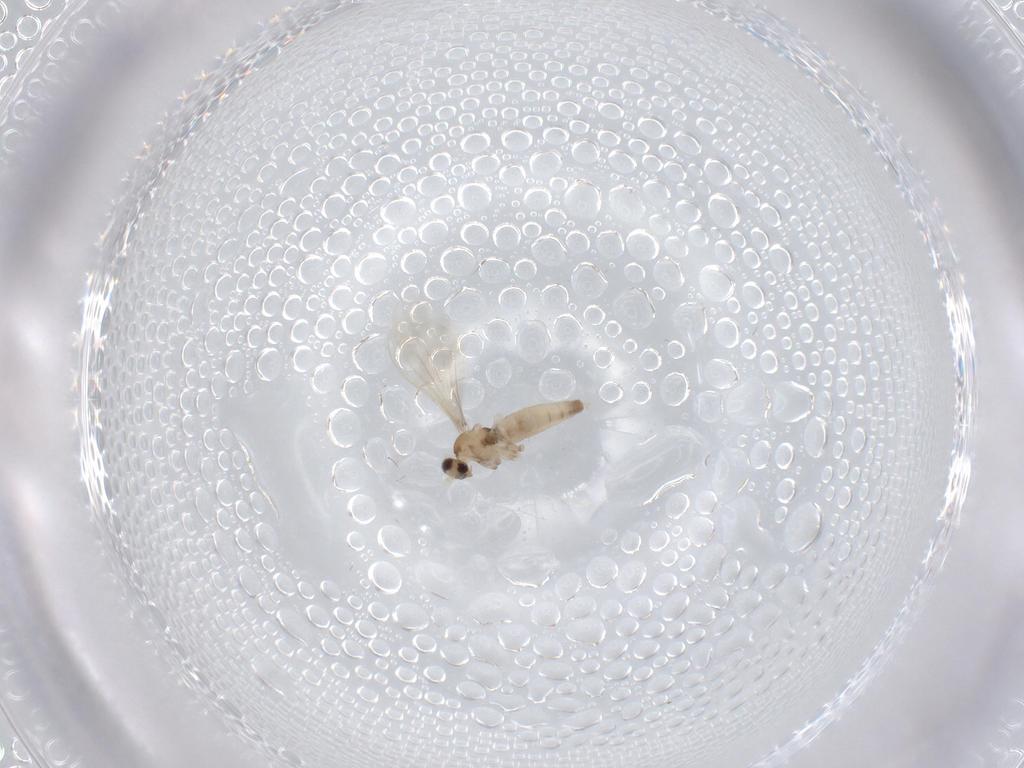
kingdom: Animalia
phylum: Arthropoda
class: Insecta
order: Diptera
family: Cecidomyiidae
